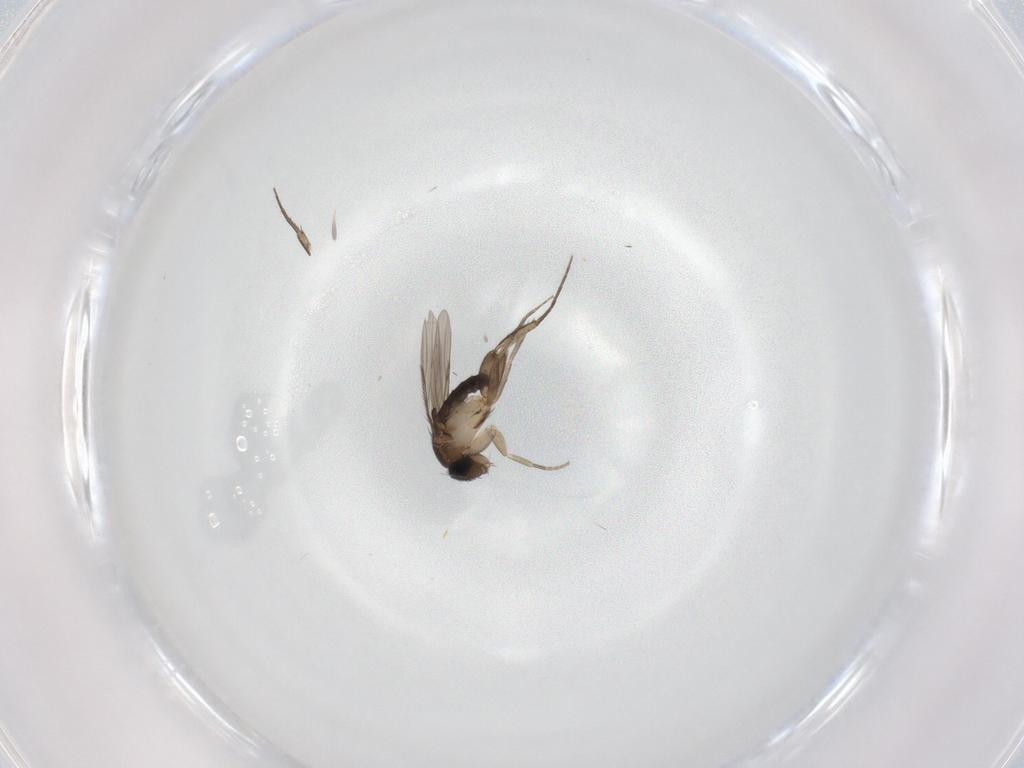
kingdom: Animalia
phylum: Arthropoda
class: Insecta
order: Diptera
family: Phoridae
